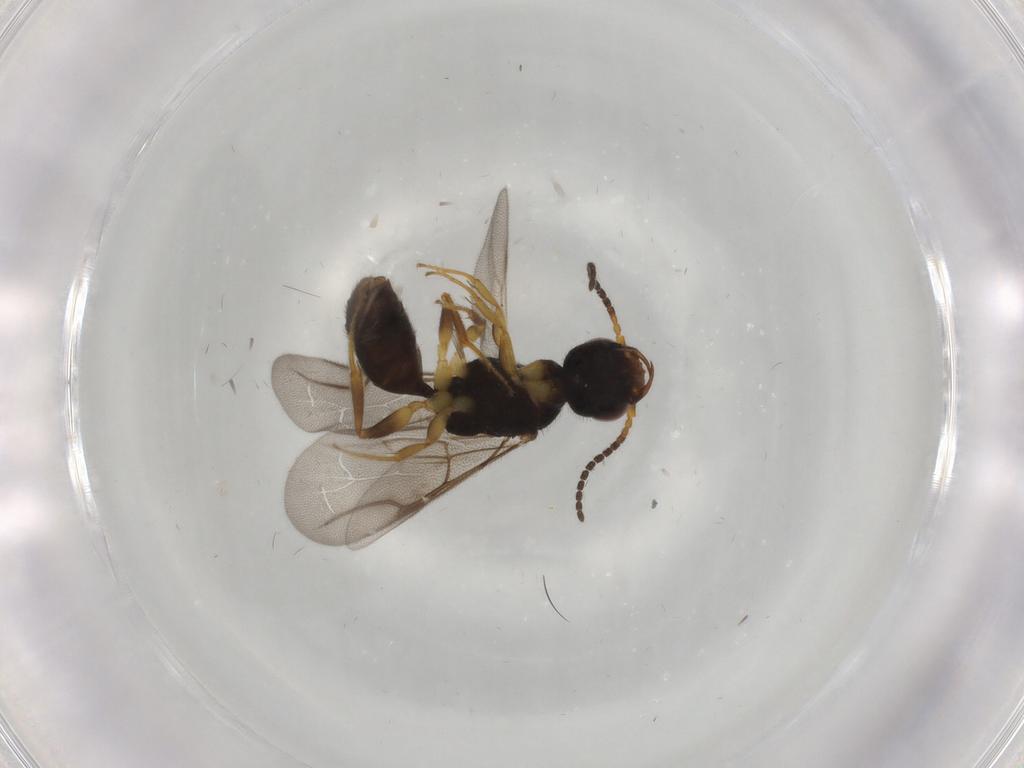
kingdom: Animalia
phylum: Arthropoda
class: Insecta
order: Hymenoptera
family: Bethylidae
